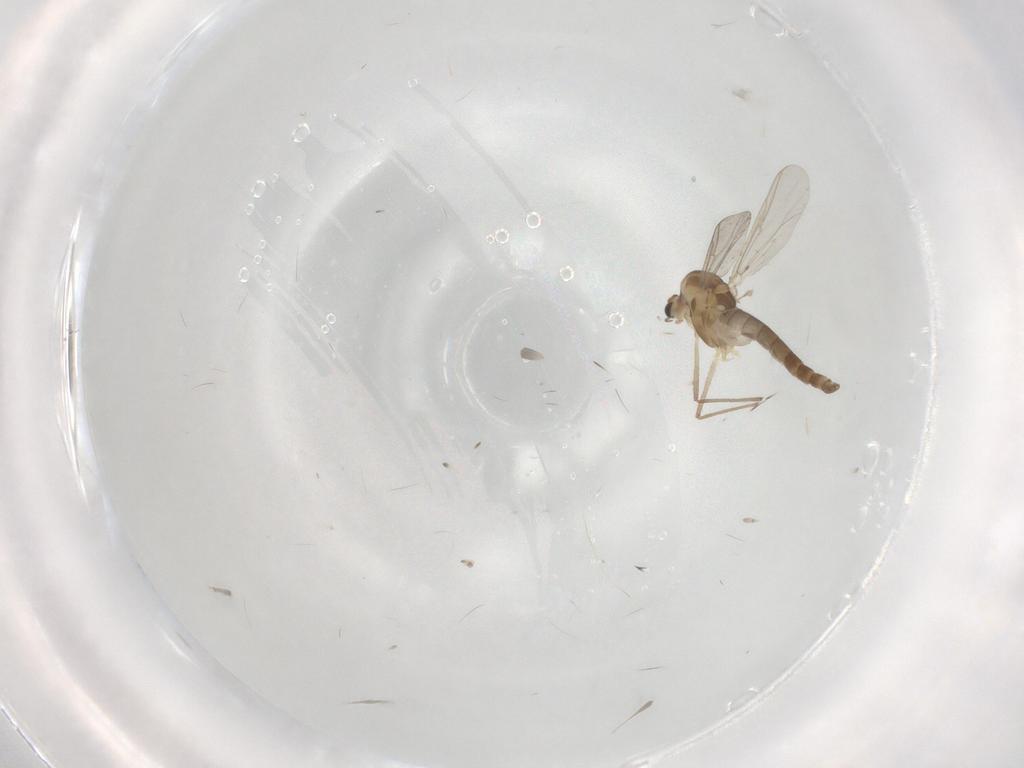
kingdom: Animalia
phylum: Arthropoda
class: Insecta
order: Diptera
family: Chironomidae
